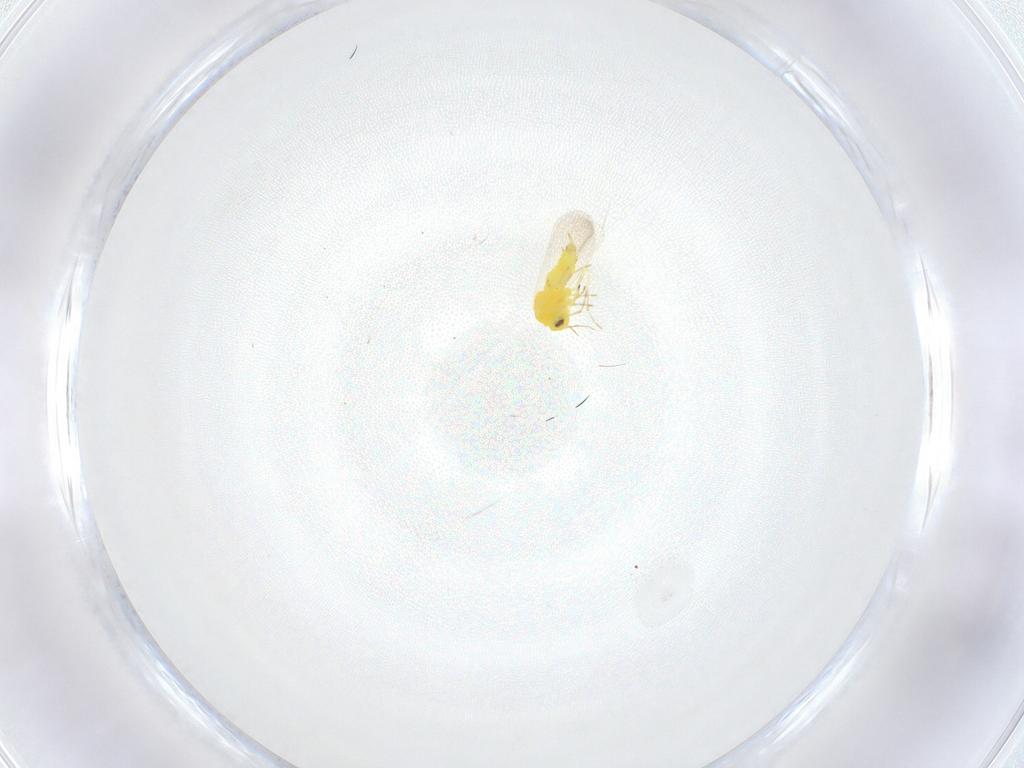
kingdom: Animalia
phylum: Arthropoda
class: Insecta
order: Hemiptera
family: Aleyrodidae
